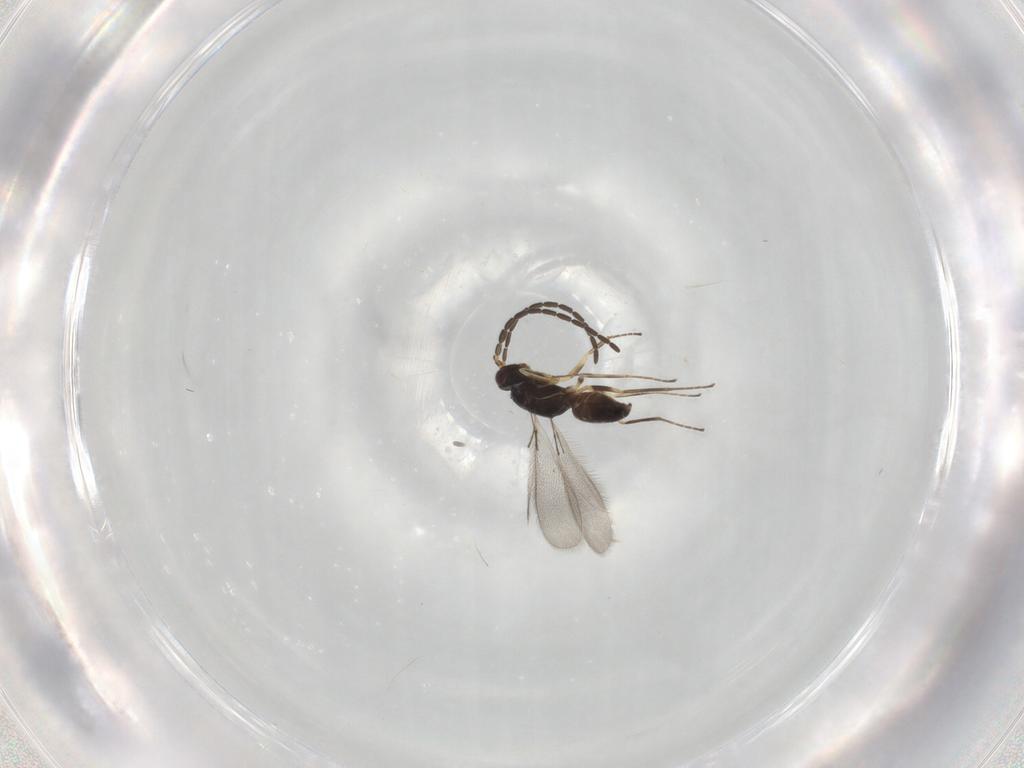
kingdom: Animalia
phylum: Arthropoda
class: Insecta
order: Hymenoptera
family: Mymaridae
